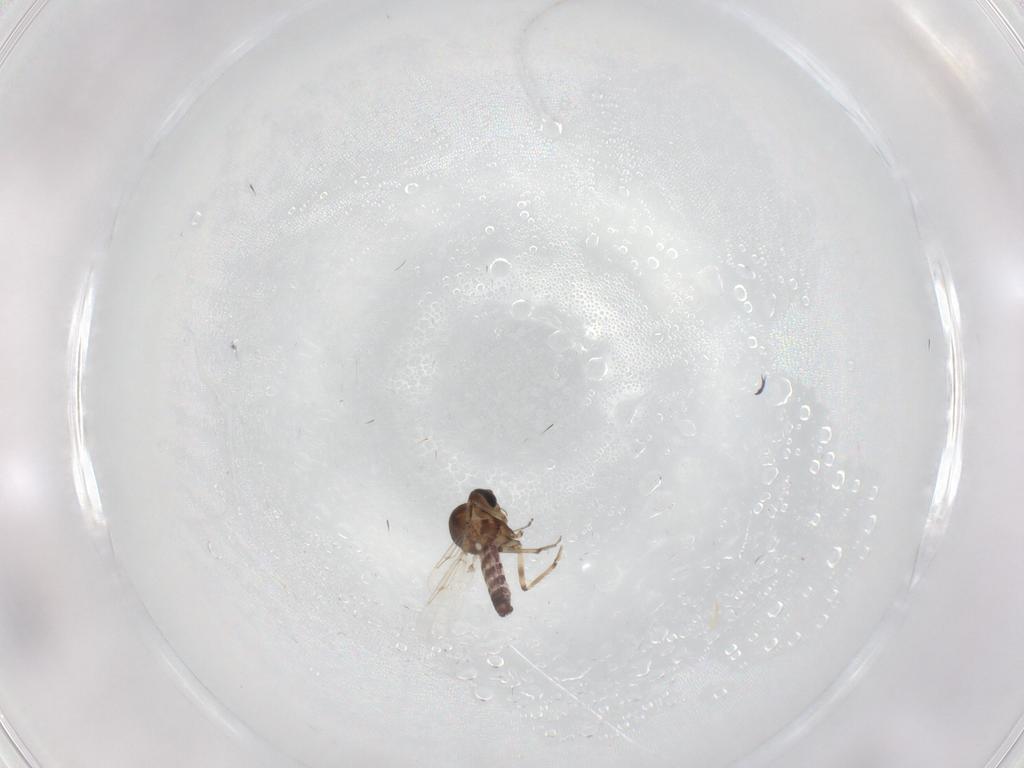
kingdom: Animalia
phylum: Arthropoda
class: Insecta
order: Diptera
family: Ceratopogonidae
